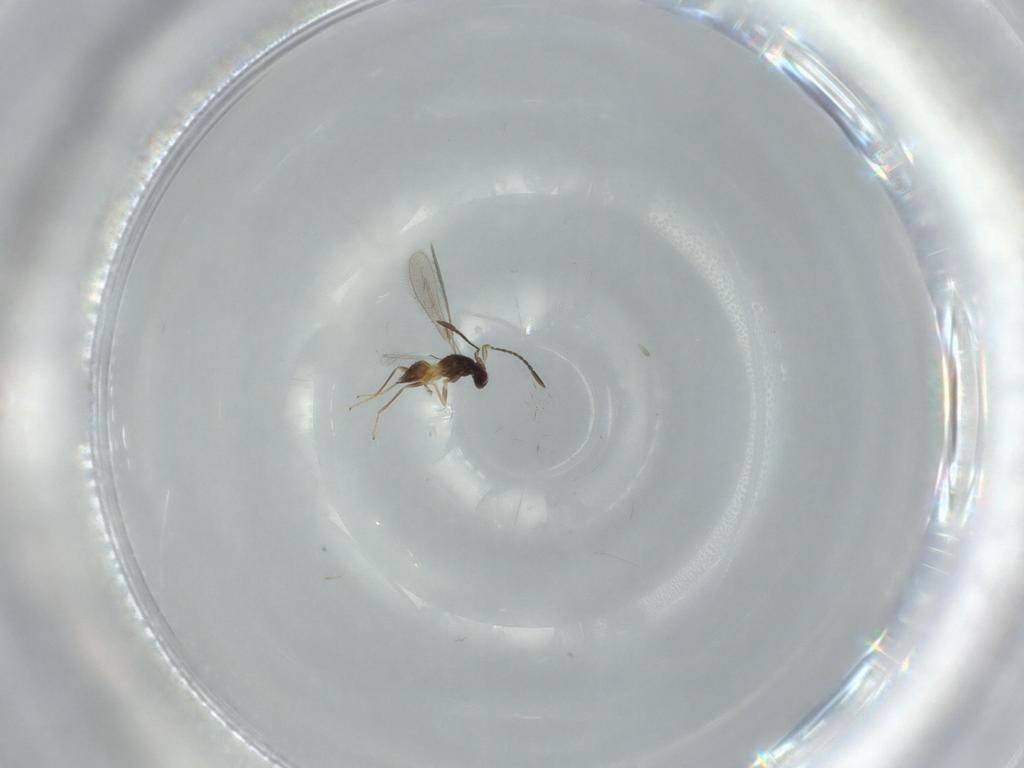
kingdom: Animalia
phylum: Arthropoda
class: Insecta
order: Hymenoptera
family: Mymaridae
